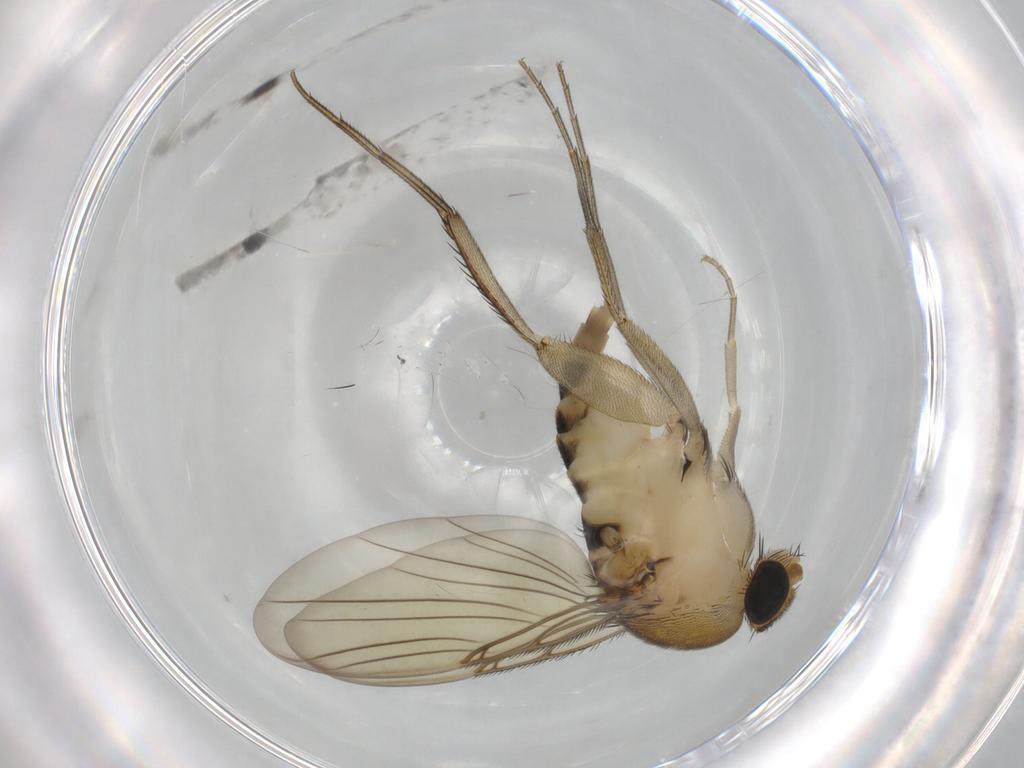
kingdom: Animalia
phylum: Arthropoda
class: Insecta
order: Diptera
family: Phoridae
